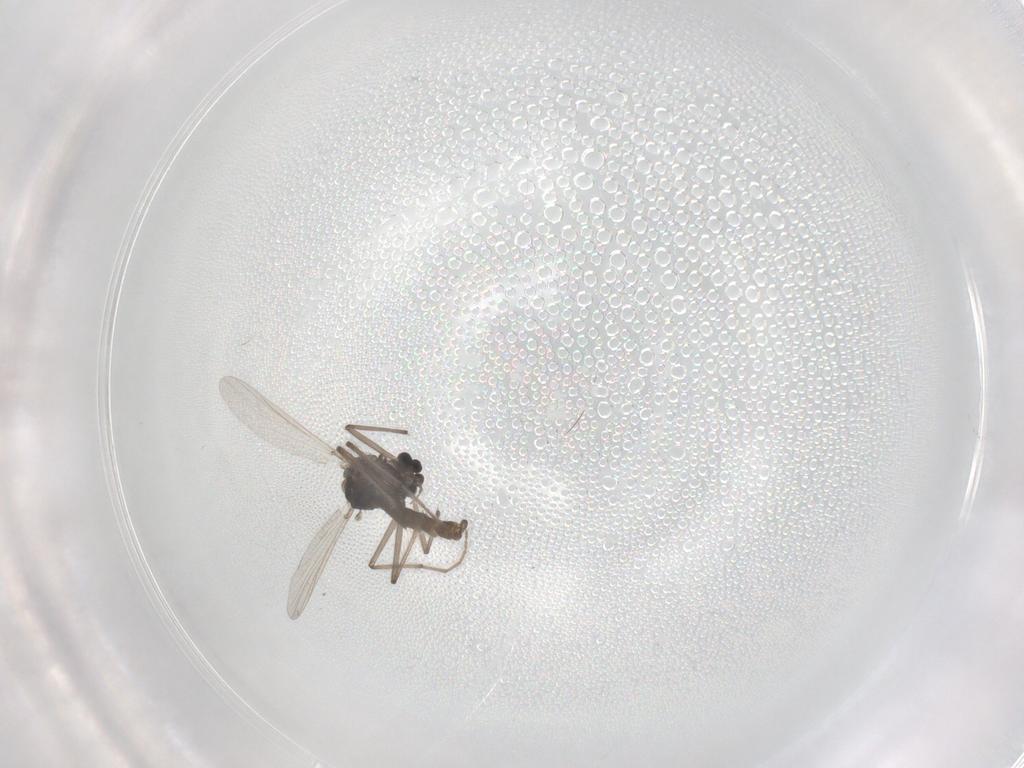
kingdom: Animalia
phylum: Arthropoda
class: Insecta
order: Diptera
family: Chironomidae
